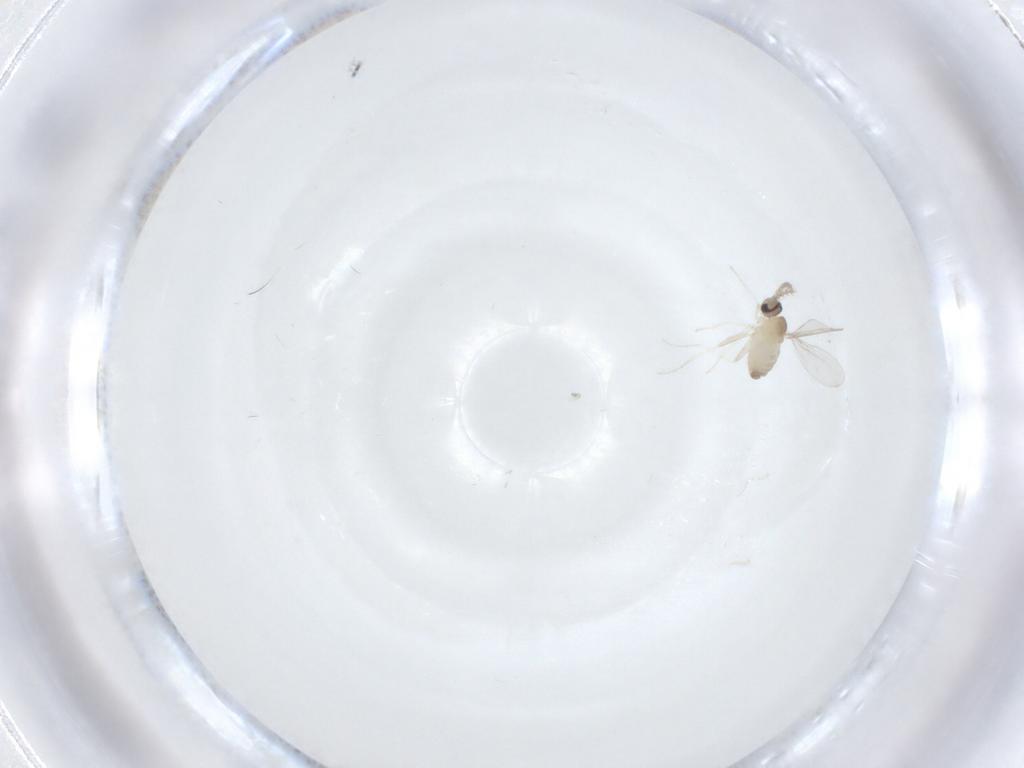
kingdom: Animalia
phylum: Arthropoda
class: Insecta
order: Diptera
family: Cecidomyiidae
